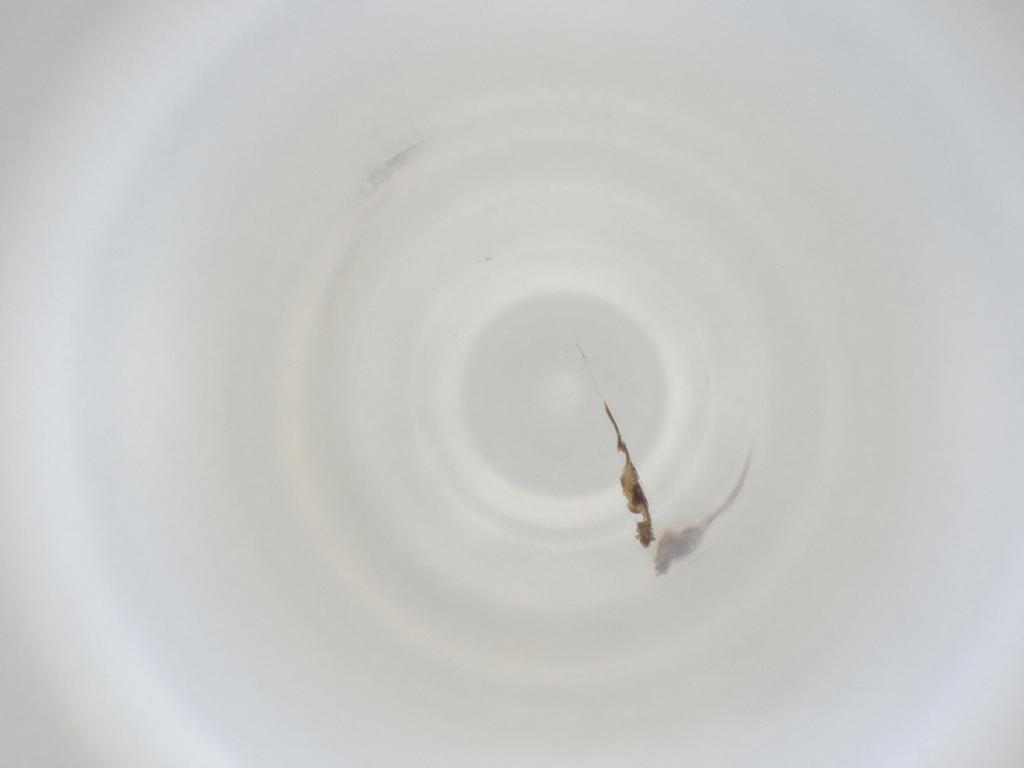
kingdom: Animalia
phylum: Arthropoda
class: Insecta
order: Diptera
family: Cecidomyiidae
